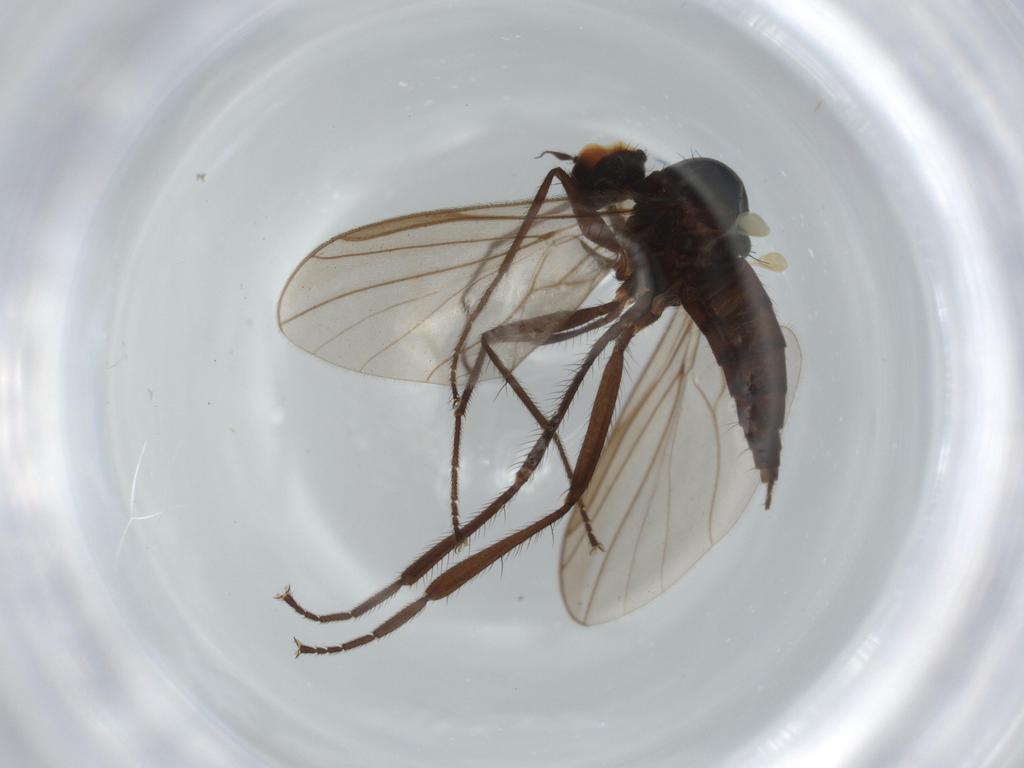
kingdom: Animalia
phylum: Arthropoda
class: Insecta
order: Diptera
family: Hybotidae
